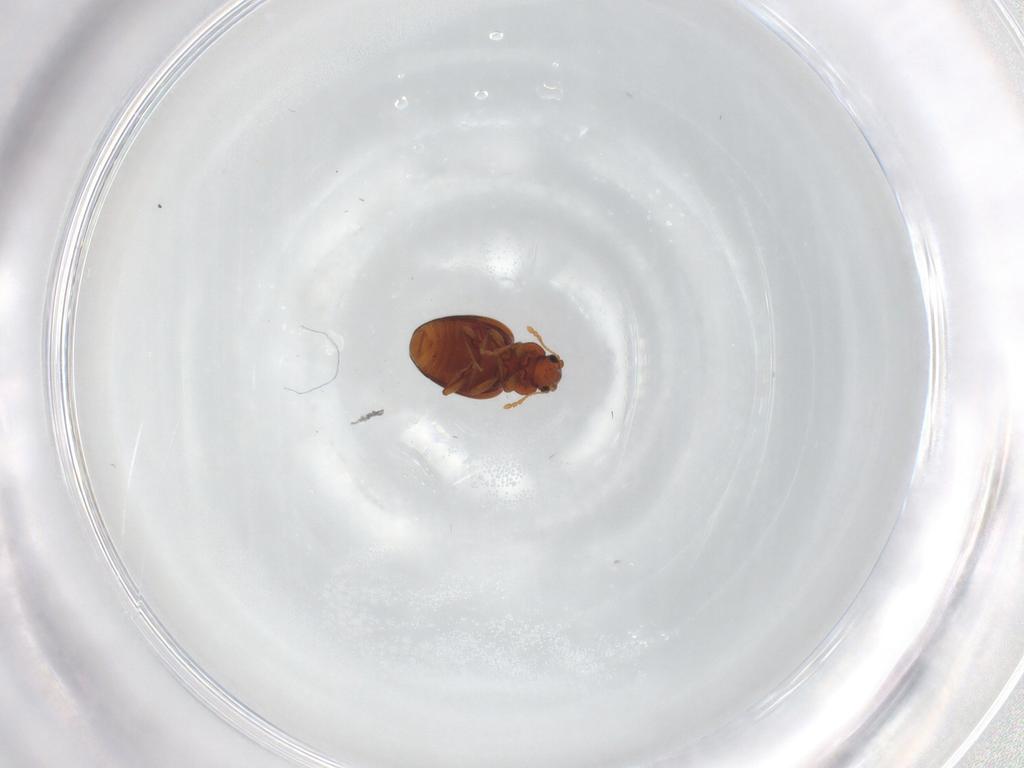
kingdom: Animalia
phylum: Arthropoda
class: Insecta
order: Coleoptera
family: Latridiidae
